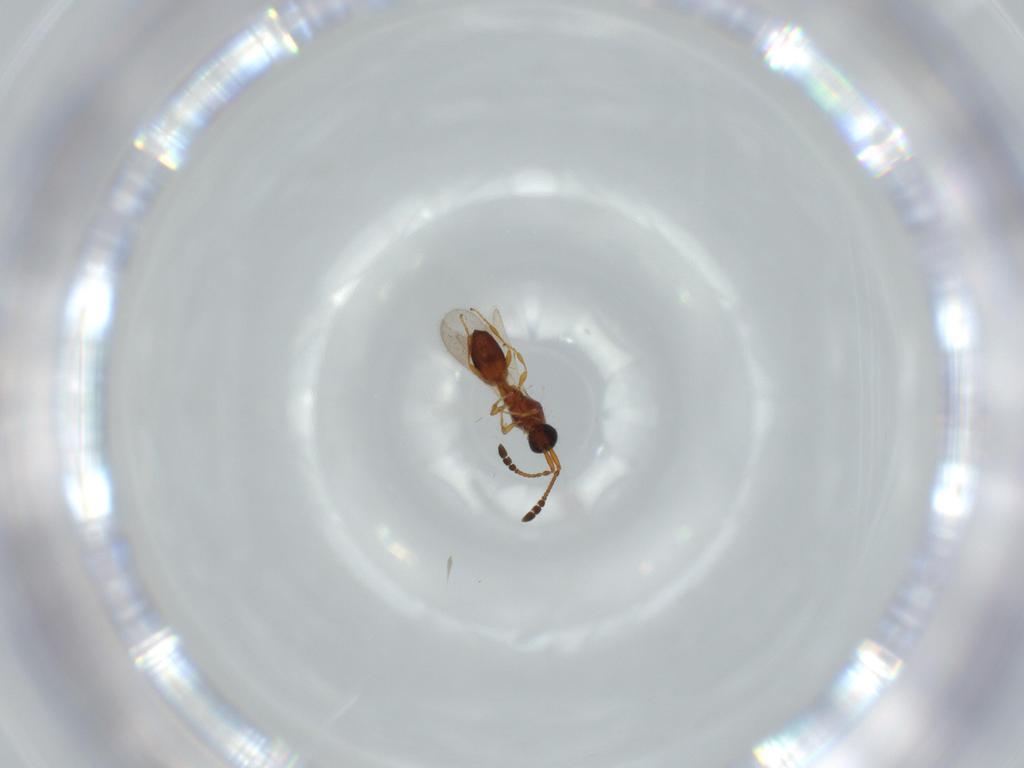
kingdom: Animalia
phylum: Arthropoda
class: Insecta
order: Hymenoptera
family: Diapriidae
